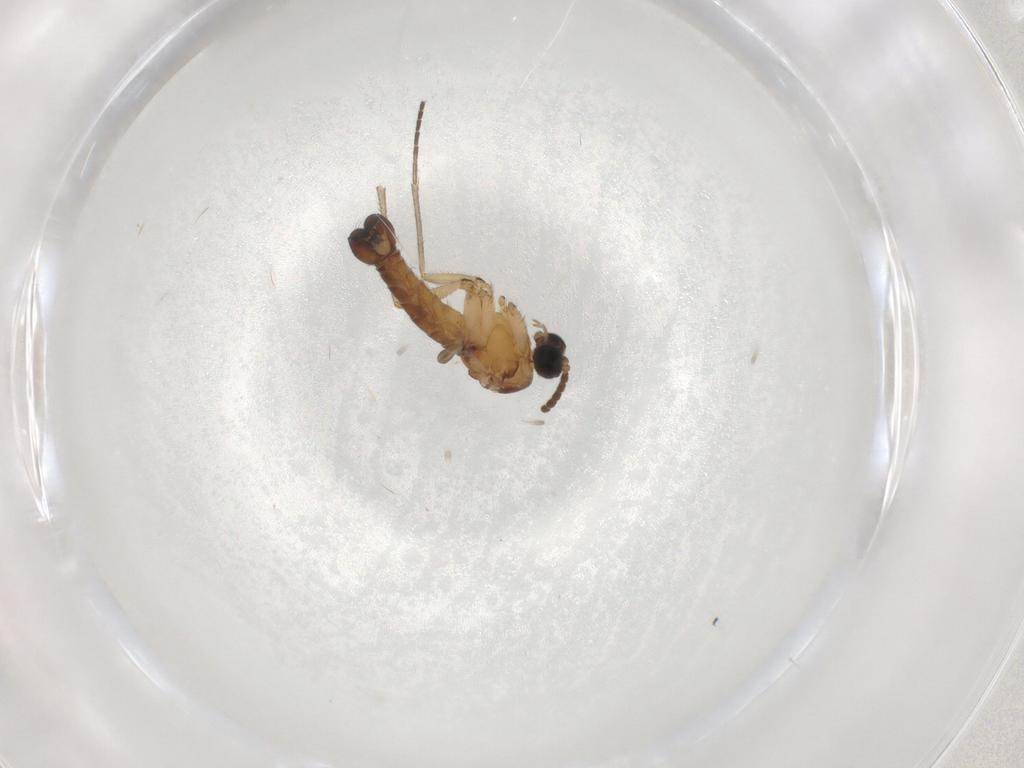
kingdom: Animalia
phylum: Arthropoda
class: Insecta
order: Diptera
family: Sciaridae
